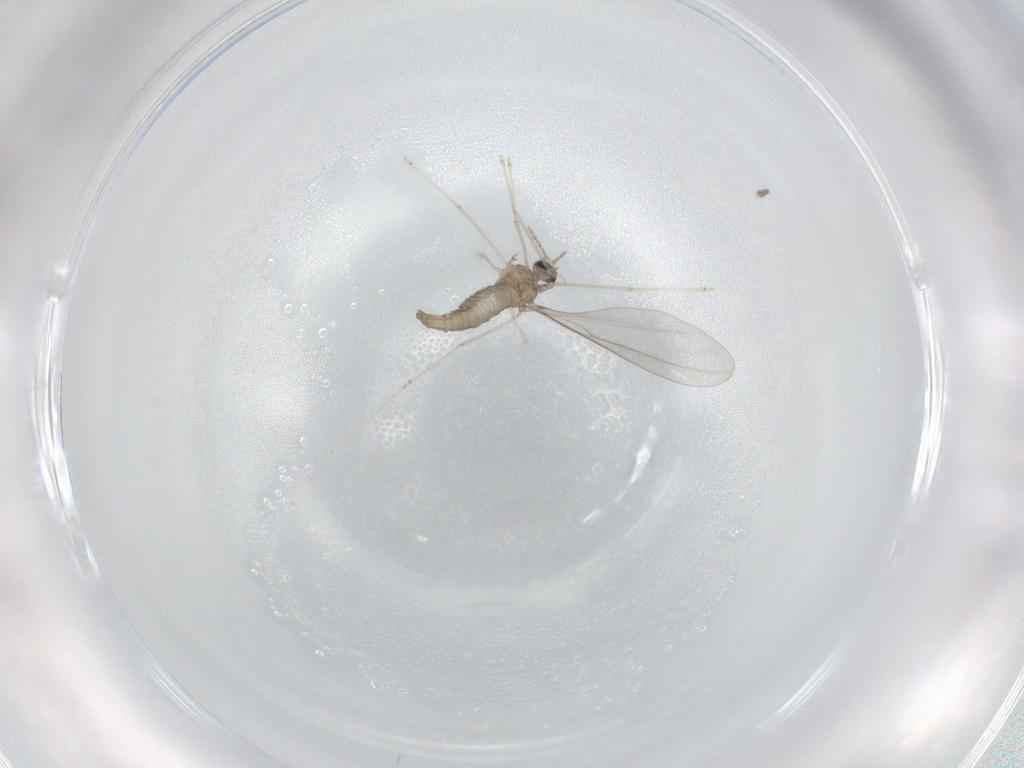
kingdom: Animalia
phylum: Arthropoda
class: Insecta
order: Diptera
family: Cecidomyiidae
